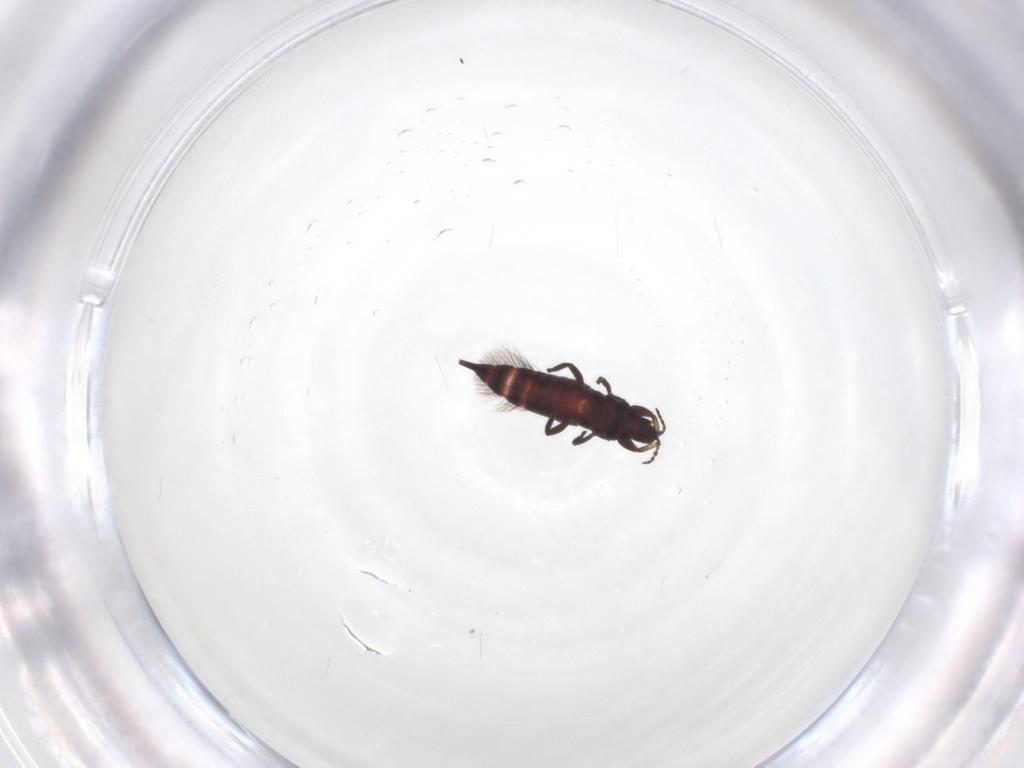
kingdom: Animalia
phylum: Arthropoda
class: Insecta
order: Thysanoptera
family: Phlaeothripidae
